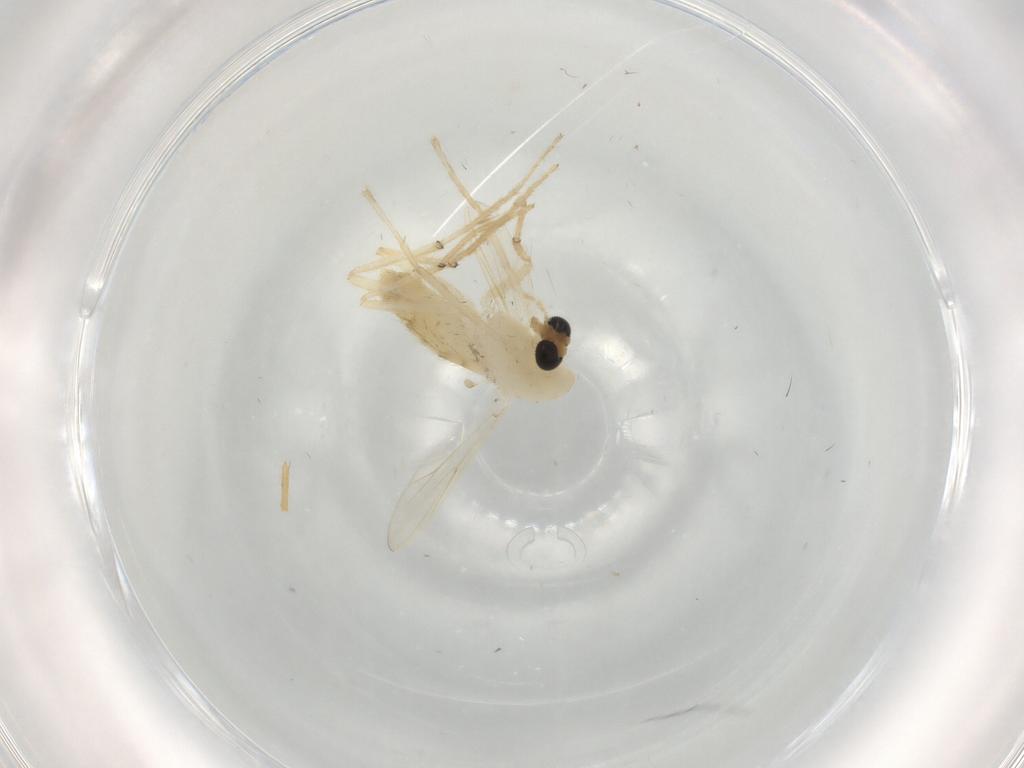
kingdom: Animalia
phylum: Arthropoda
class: Insecta
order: Diptera
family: Chironomidae
